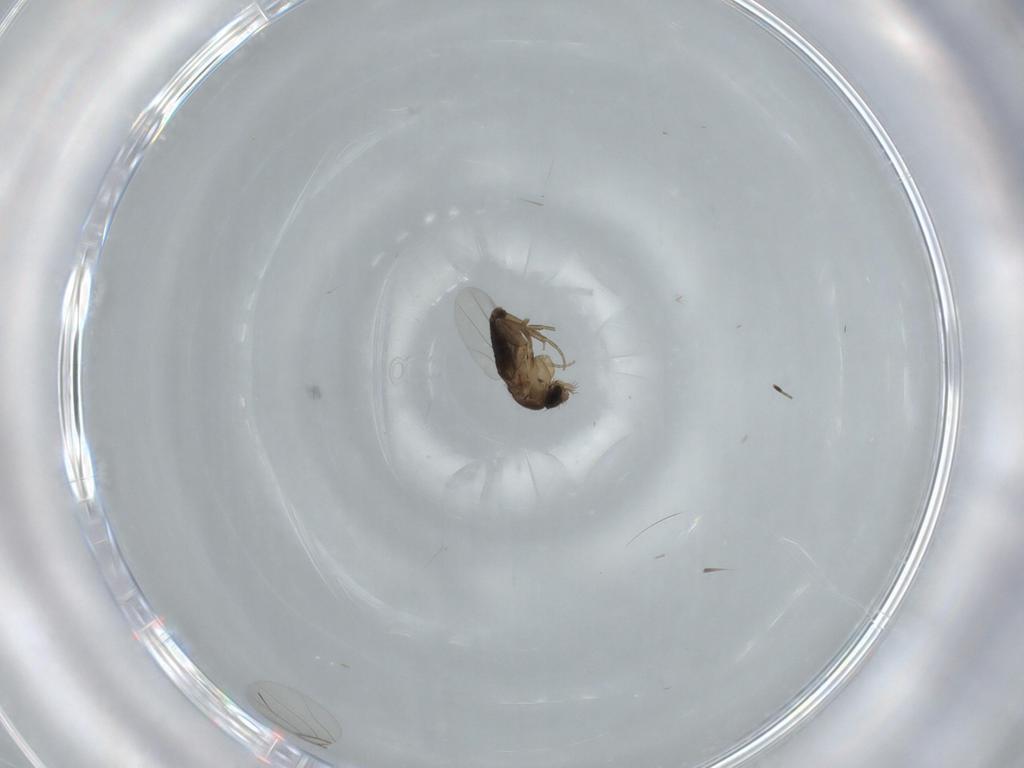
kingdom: Animalia
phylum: Arthropoda
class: Insecta
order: Diptera
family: Phoridae
